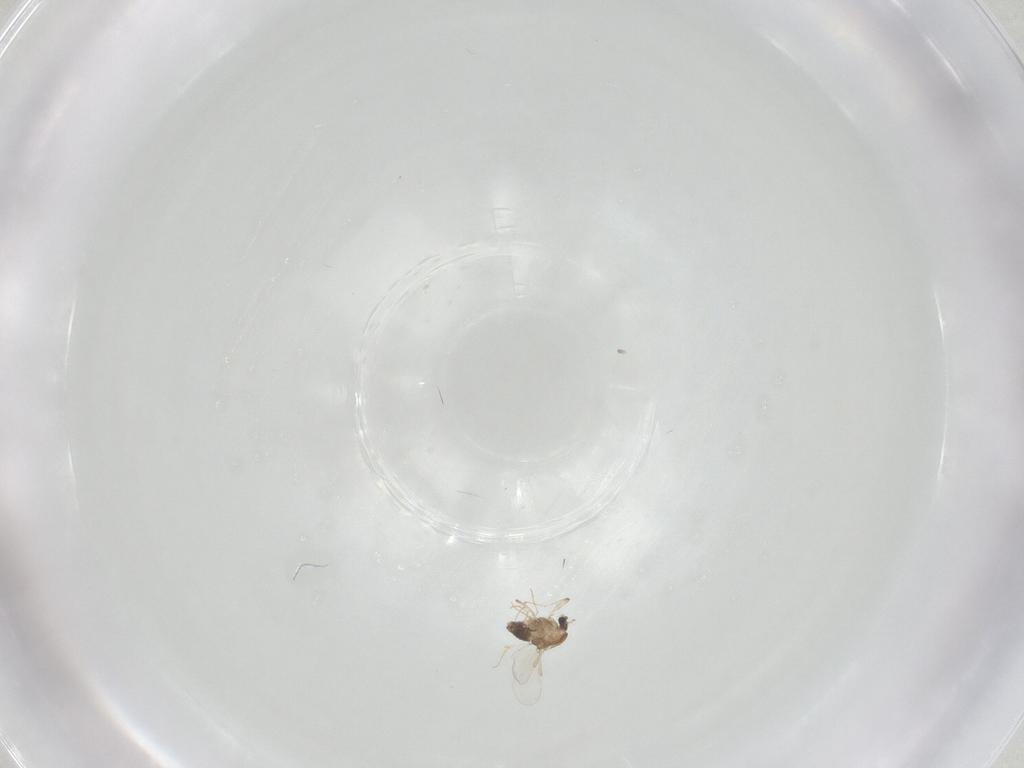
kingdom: Animalia
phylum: Arthropoda
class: Insecta
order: Diptera
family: Chironomidae
